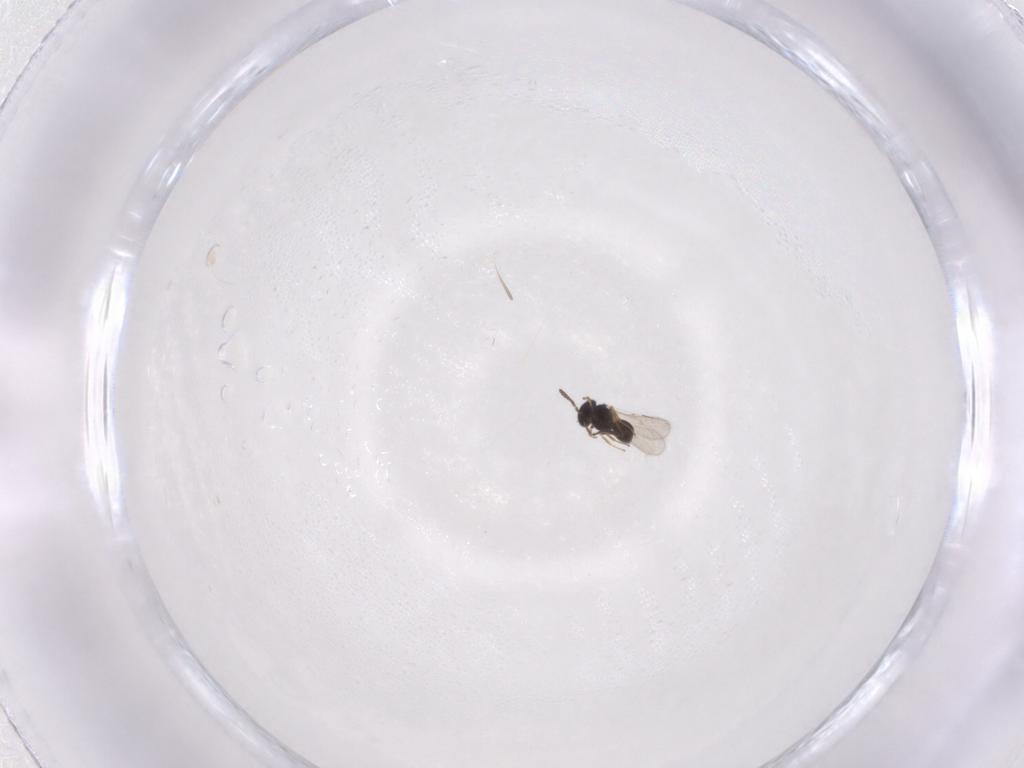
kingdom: Animalia
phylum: Arthropoda
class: Insecta
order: Hymenoptera
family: Scelionidae
